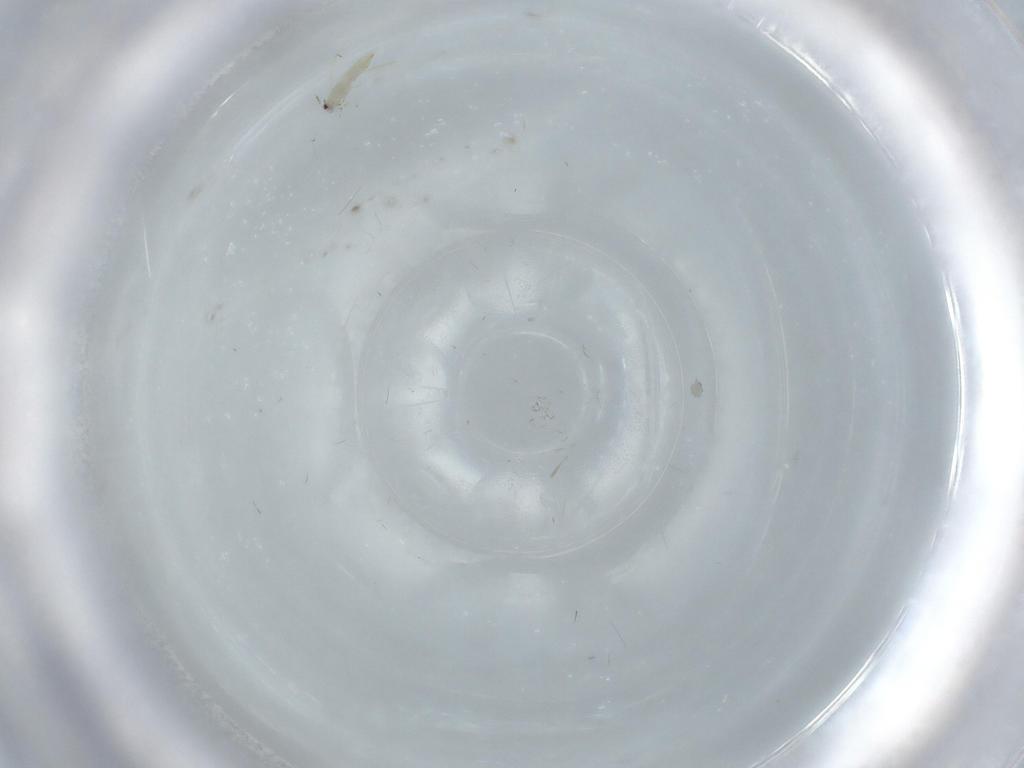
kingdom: Animalia
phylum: Arthropoda
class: Insecta
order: Thysanoptera
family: Thripidae
